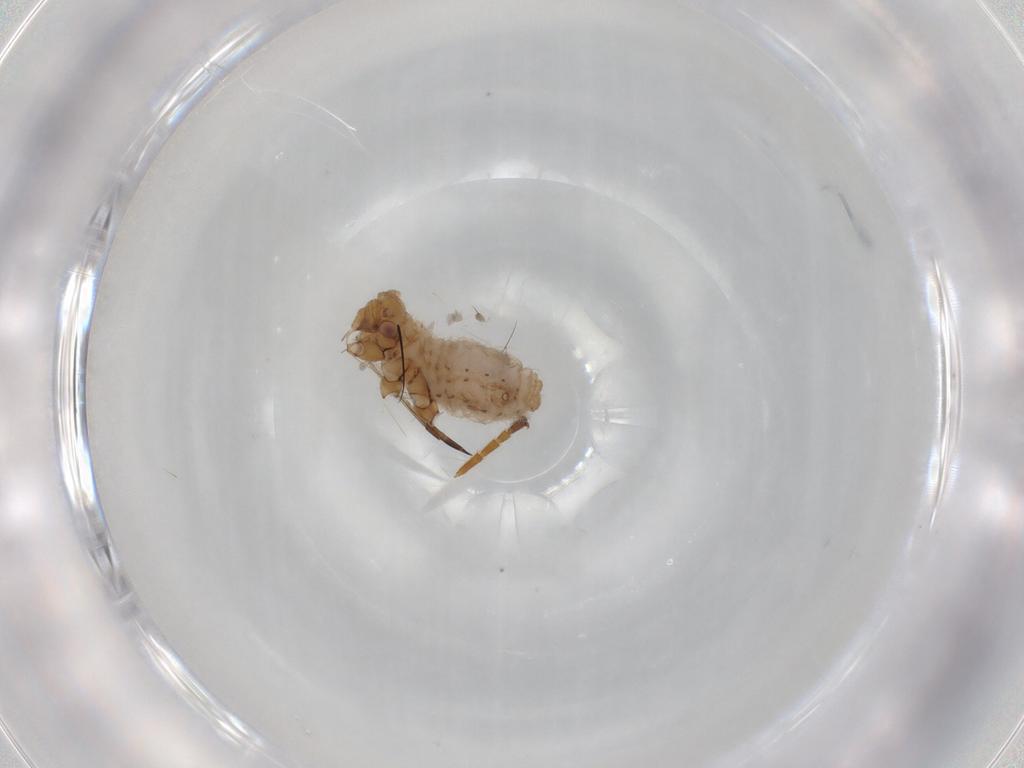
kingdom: Animalia
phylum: Arthropoda
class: Insecta
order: Hemiptera
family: Aphididae
